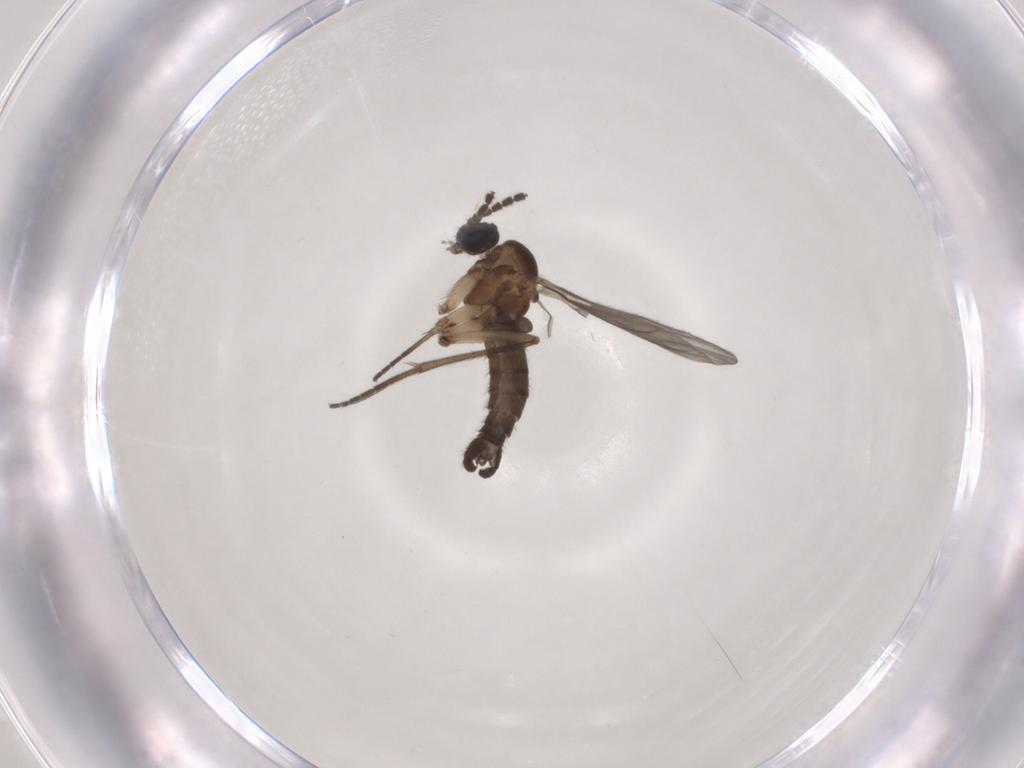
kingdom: Animalia
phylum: Arthropoda
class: Insecta
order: Diptera
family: Sciaridae
